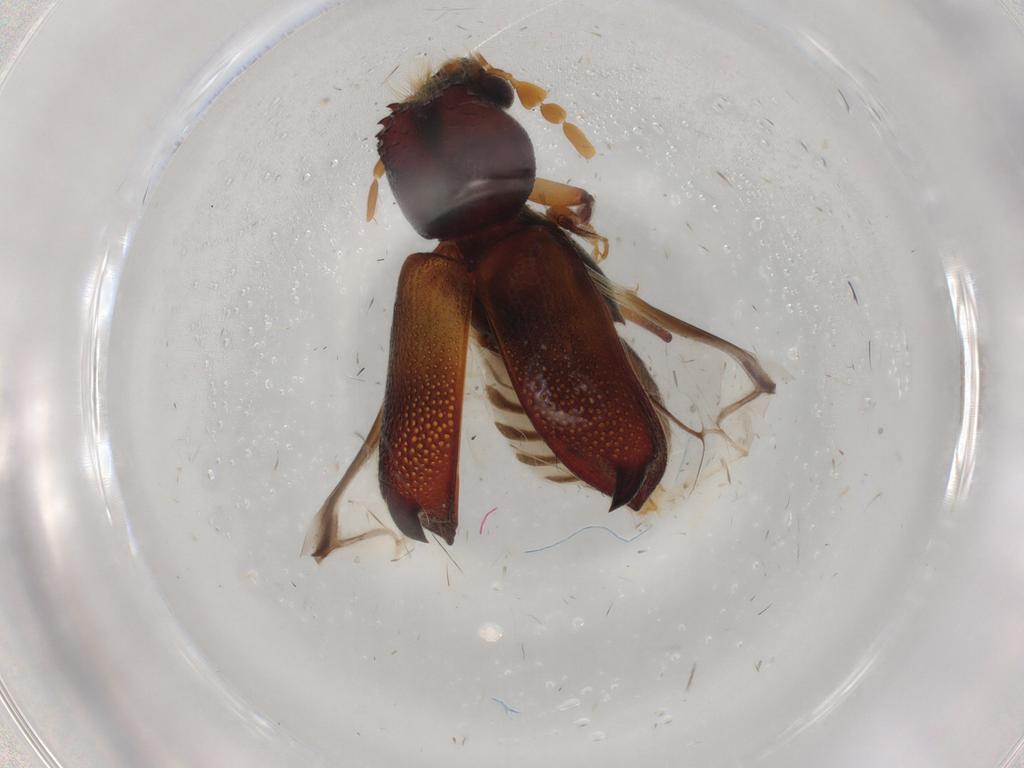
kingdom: Animalia
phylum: Arthropoda
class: Insecta
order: Coleoptera
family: Bostrichidae
